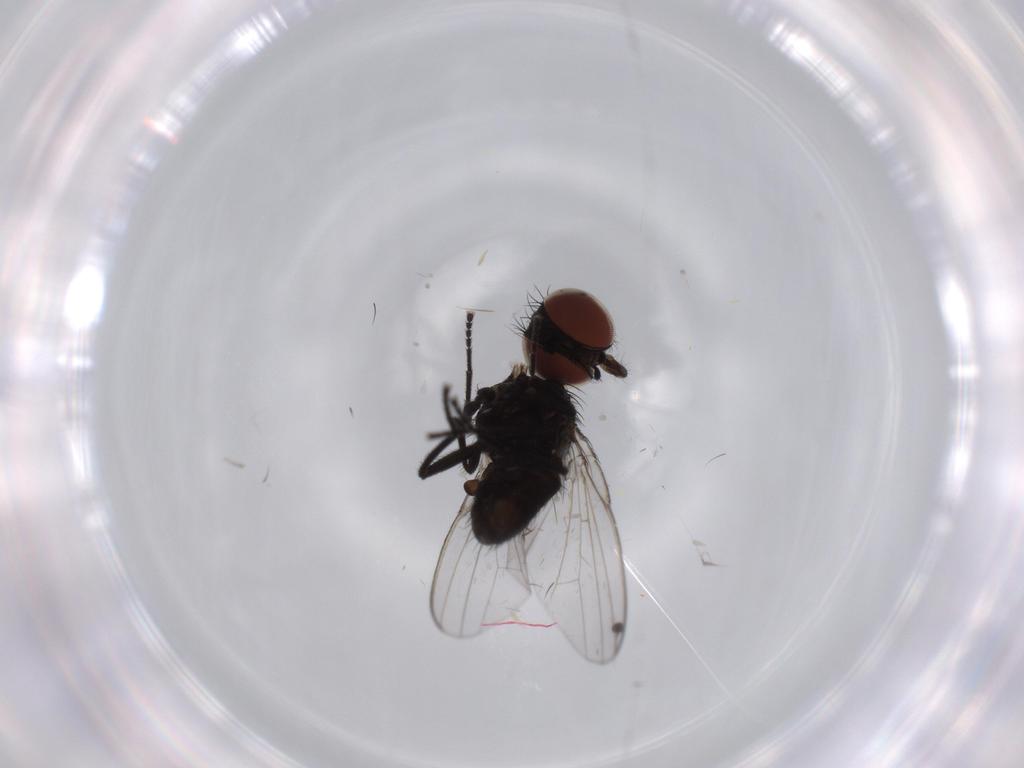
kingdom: Animalia
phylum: Arthropoda
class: Insecta
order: Diptera
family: Milichiidae
